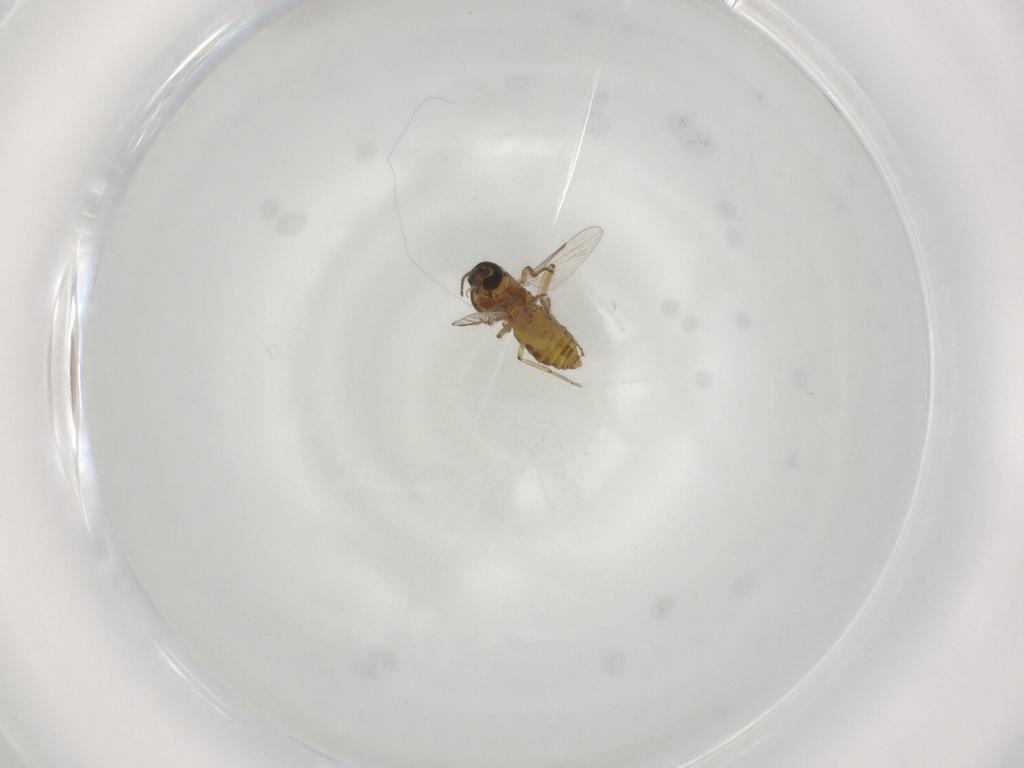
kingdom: Animalia
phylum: Arthropoda
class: Insecta
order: Diptera
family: Ceratopogonidae
